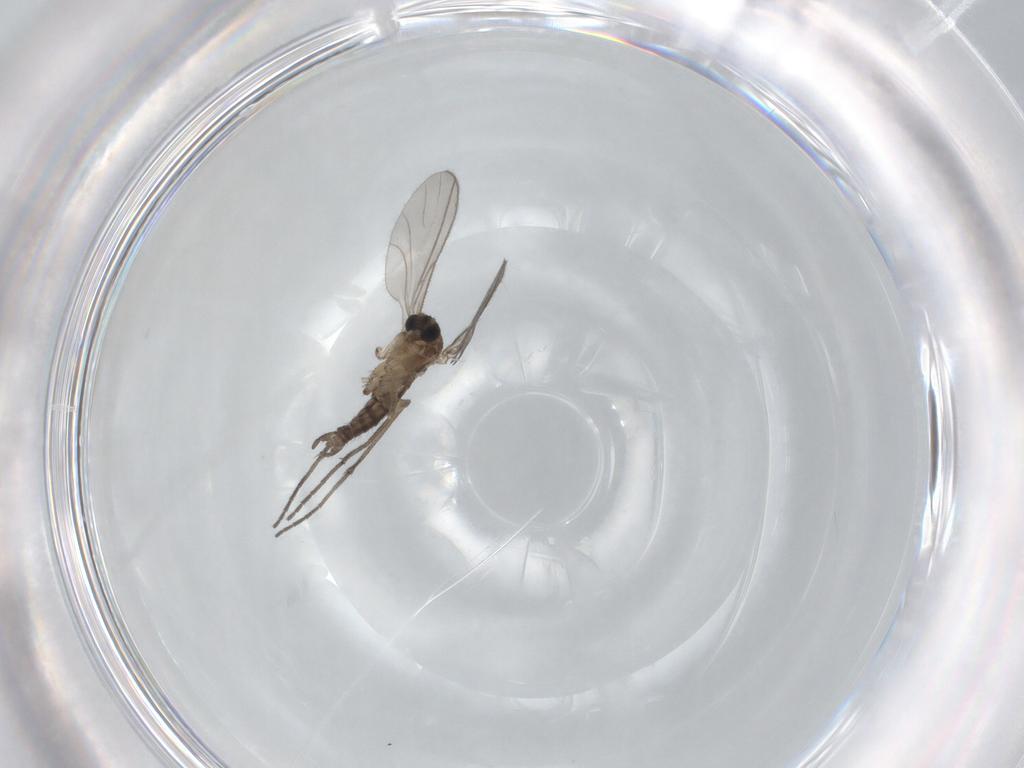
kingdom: Animalia
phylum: Arthropoda
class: Insecta
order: Diptera
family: Sciaridae
